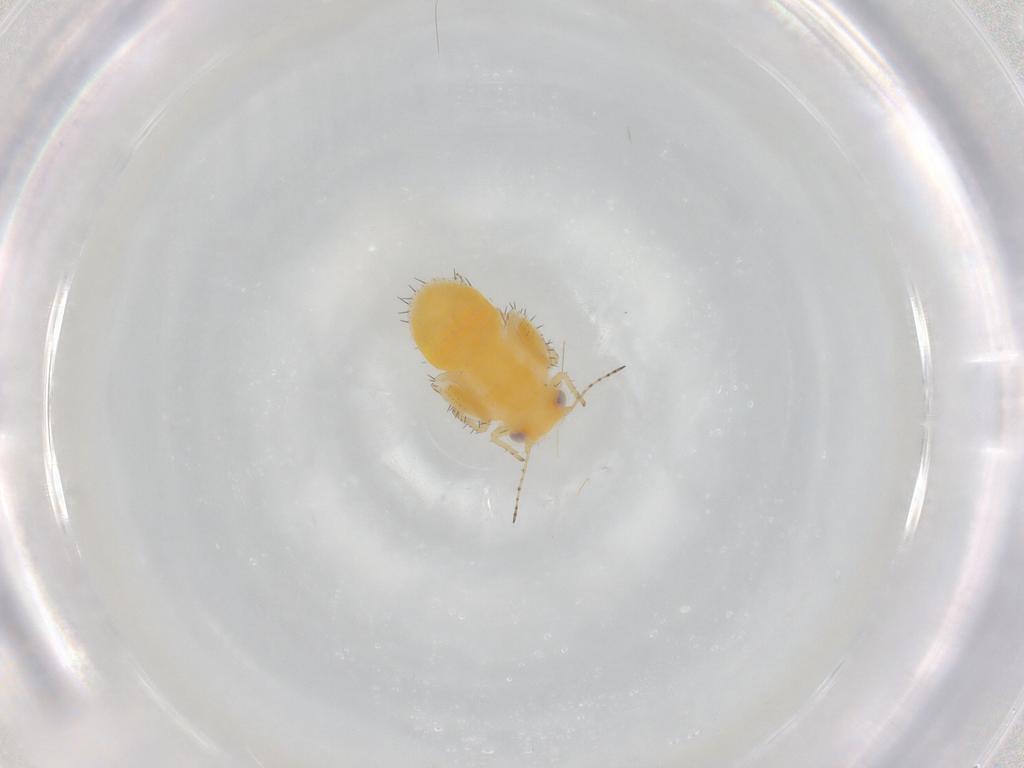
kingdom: Animalia
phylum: Arthropoda
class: Insecta
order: Hemiptera
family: Psyllidae
